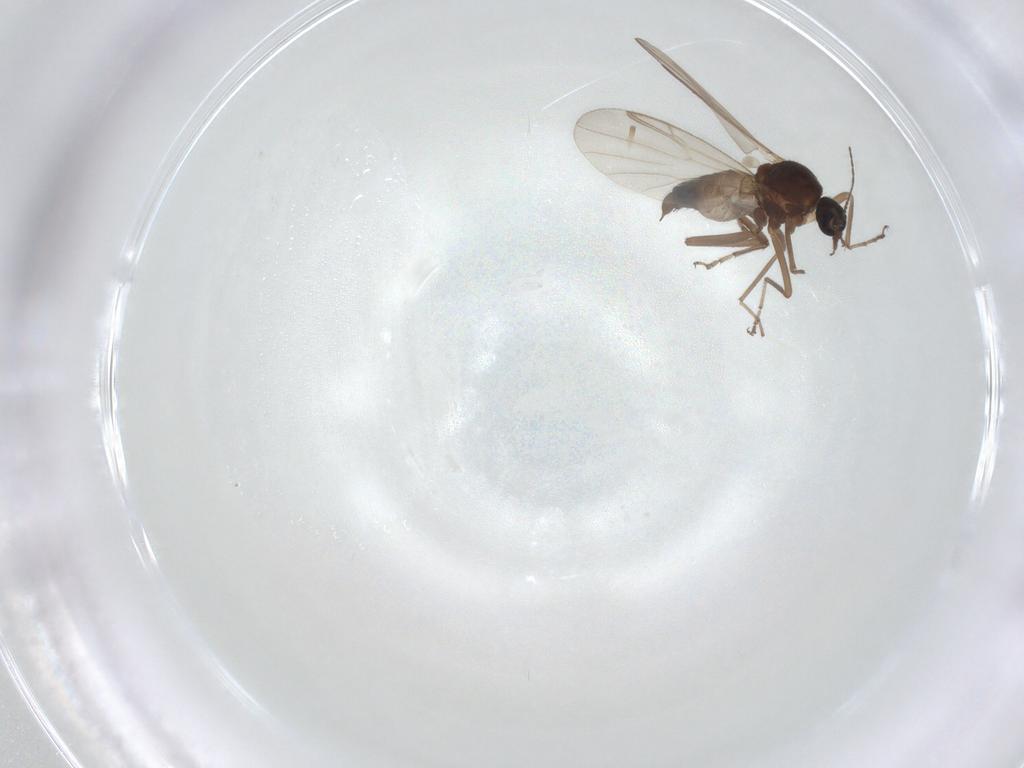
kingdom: Animalia
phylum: Arthropoda
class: Insecta
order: Diptera
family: Ceratopogonidae
